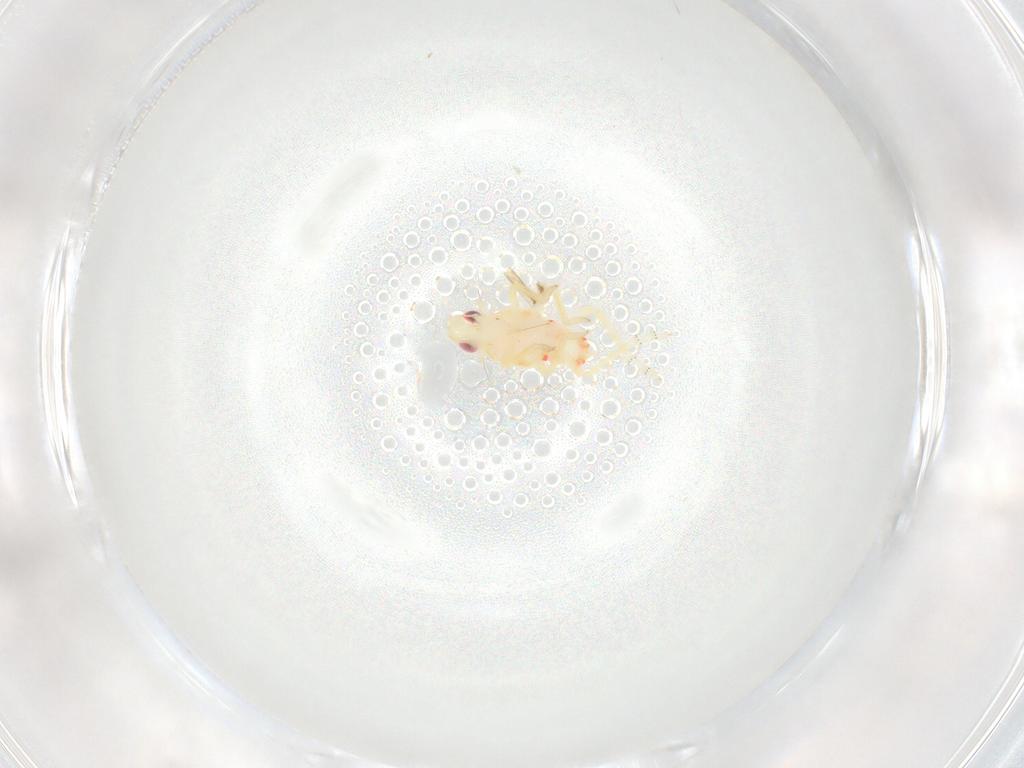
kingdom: Animalia
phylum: Arthropoda
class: Insecta
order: Hemiptera
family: Tropiduchidae
